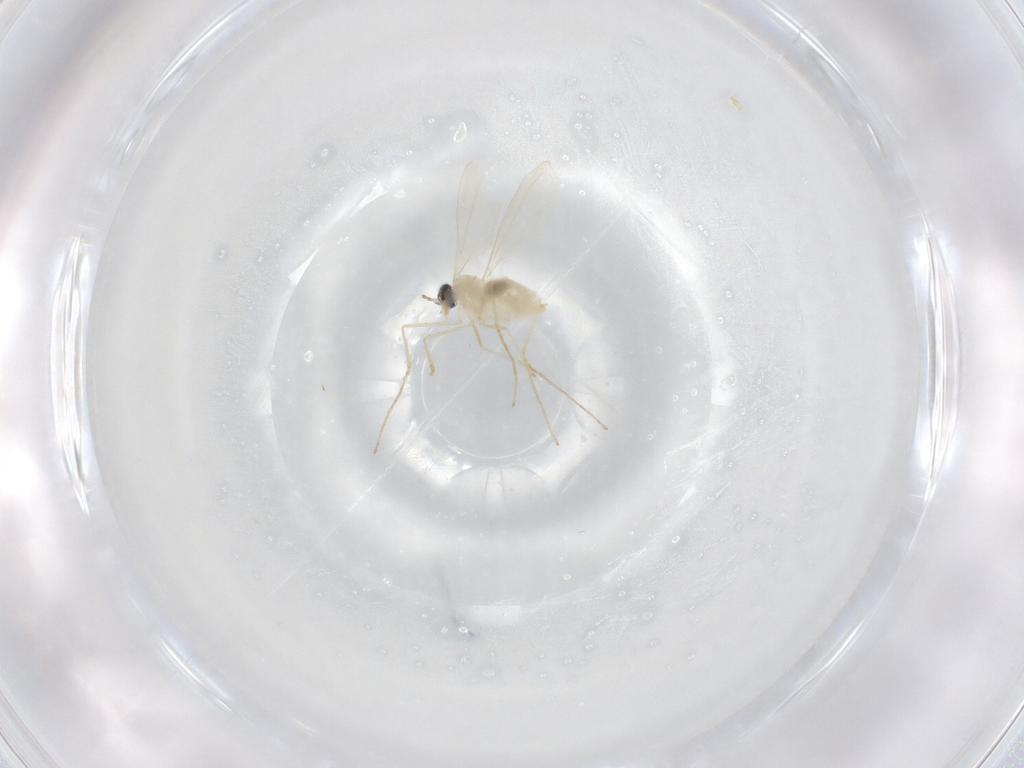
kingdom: Animalia
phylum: Arthropoda
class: Insecta
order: Diptera
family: Cecidomyiidae
